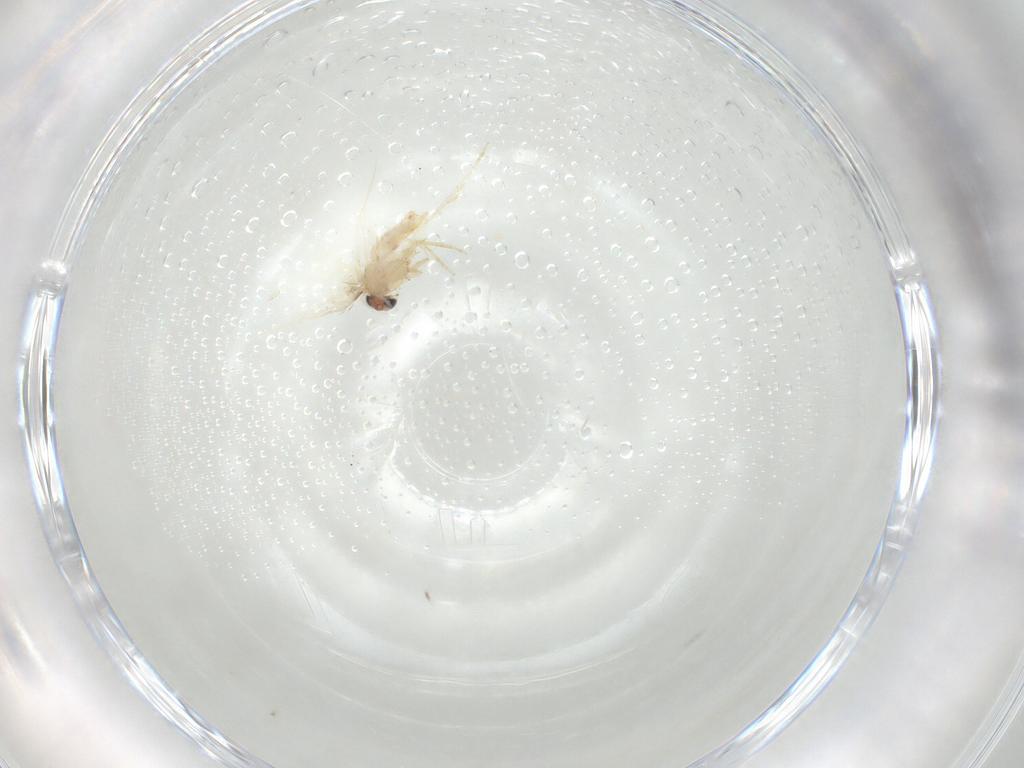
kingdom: Animalia
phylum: Arthropoda
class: Insecta
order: Lepidoptera
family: Nepticulidae
